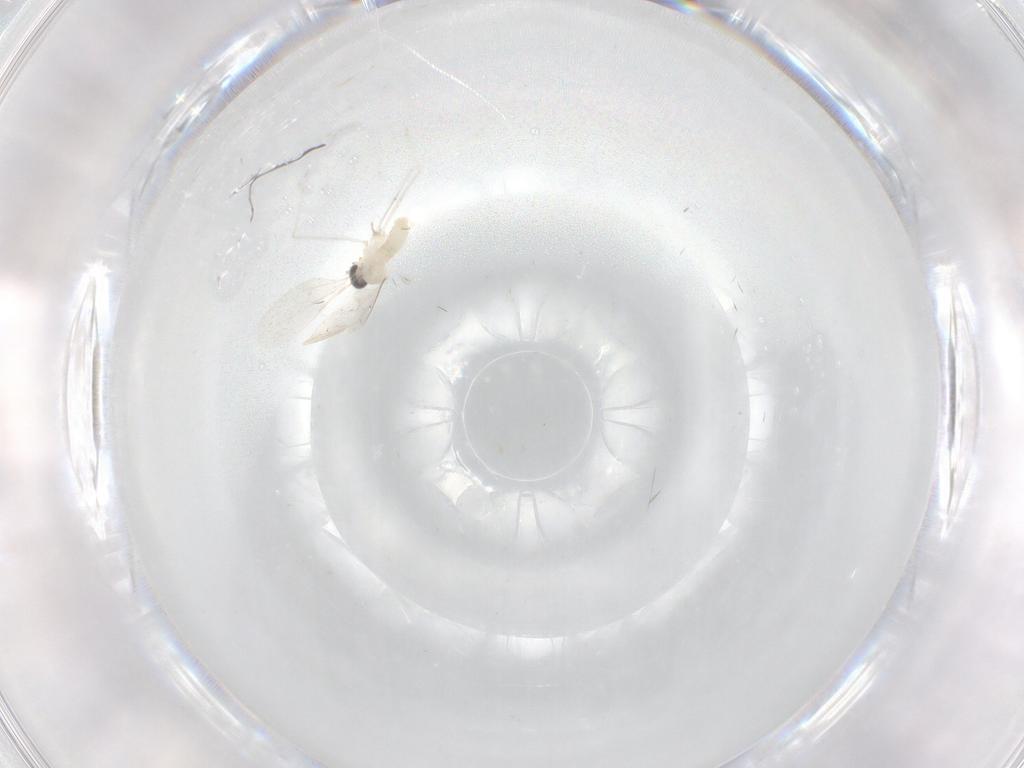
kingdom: Animalia
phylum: Arthropoda
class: Insecta
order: Diptera
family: Cecidomyiidae
